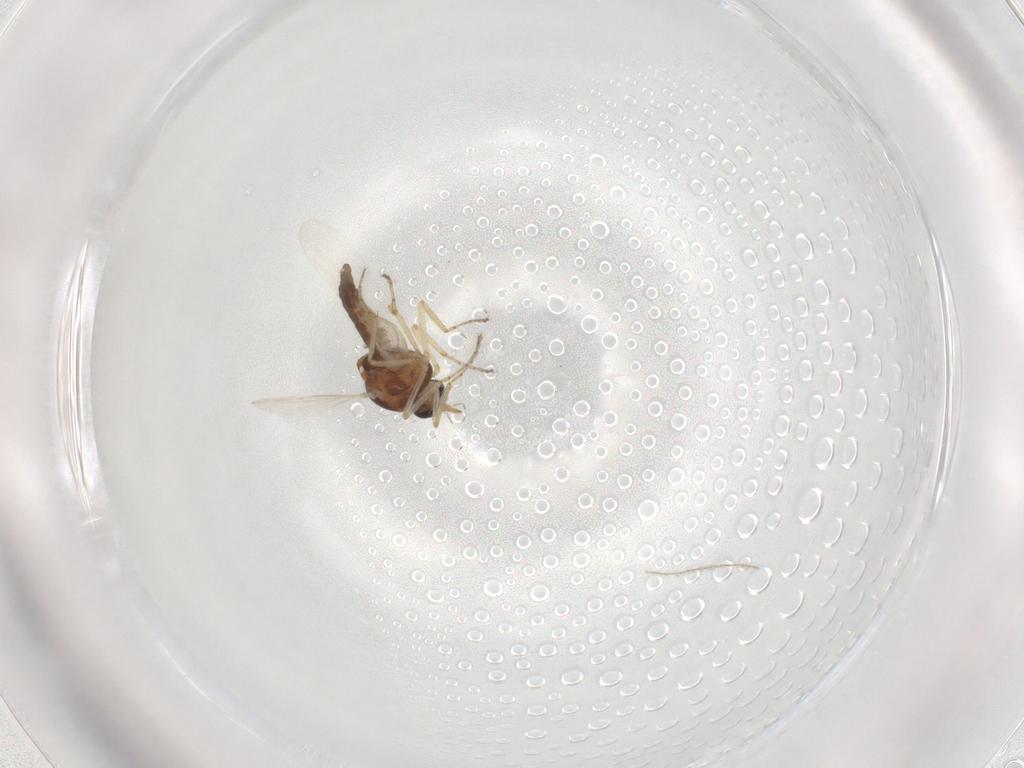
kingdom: Animalia
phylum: Arthropoda
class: Insecta
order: Diptera
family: Ceratopogonidae
